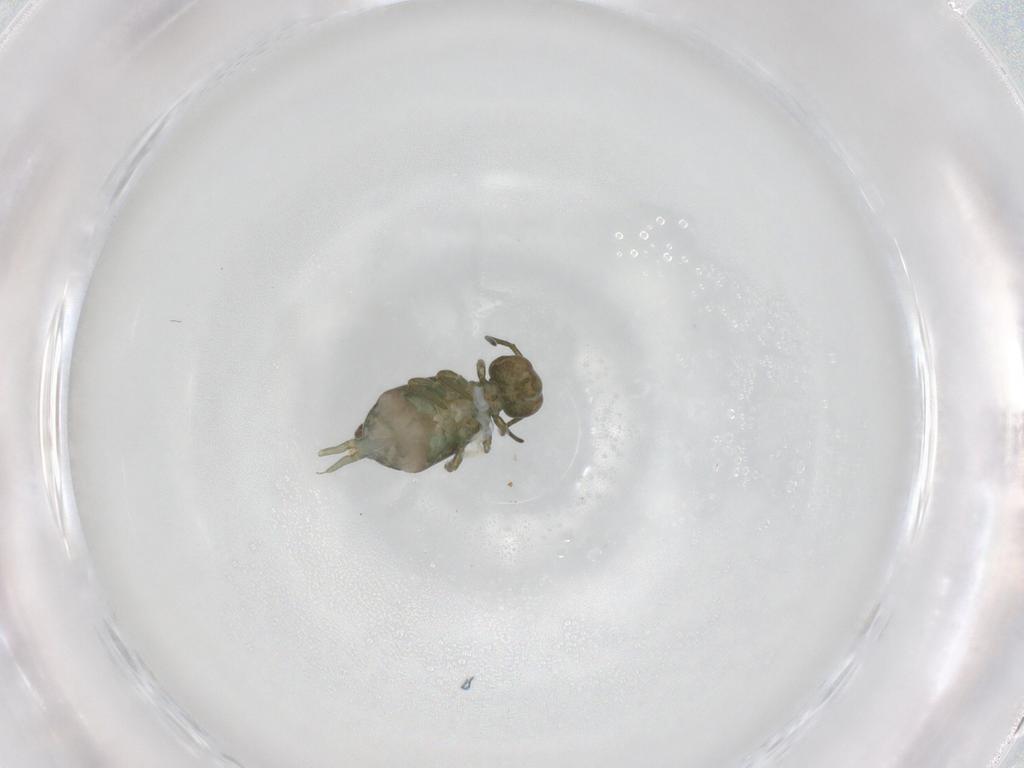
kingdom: Animalia
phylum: Arthropoda
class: Collembola
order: Symphypleona
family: Sminthuridae
